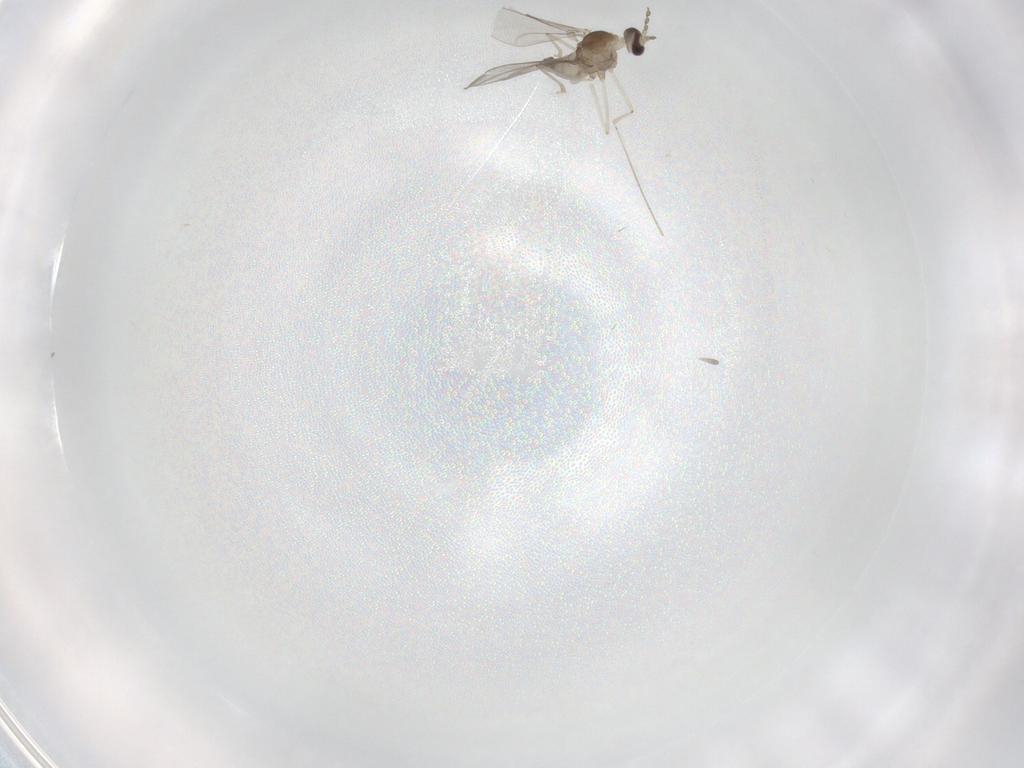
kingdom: Animalia
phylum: Arthropoda
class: Insecta
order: Diptera
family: Cecidomyiidae
